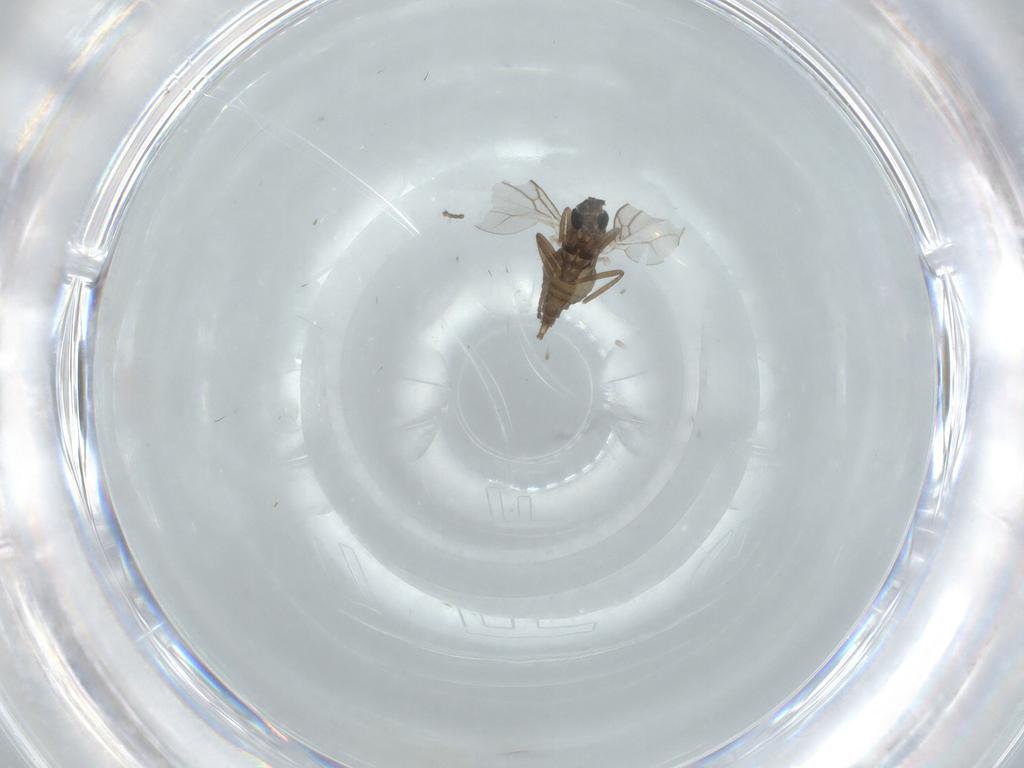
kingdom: Animalia
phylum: Arthropoda
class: Insecta
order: Diptera
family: Cecidomyiidae
